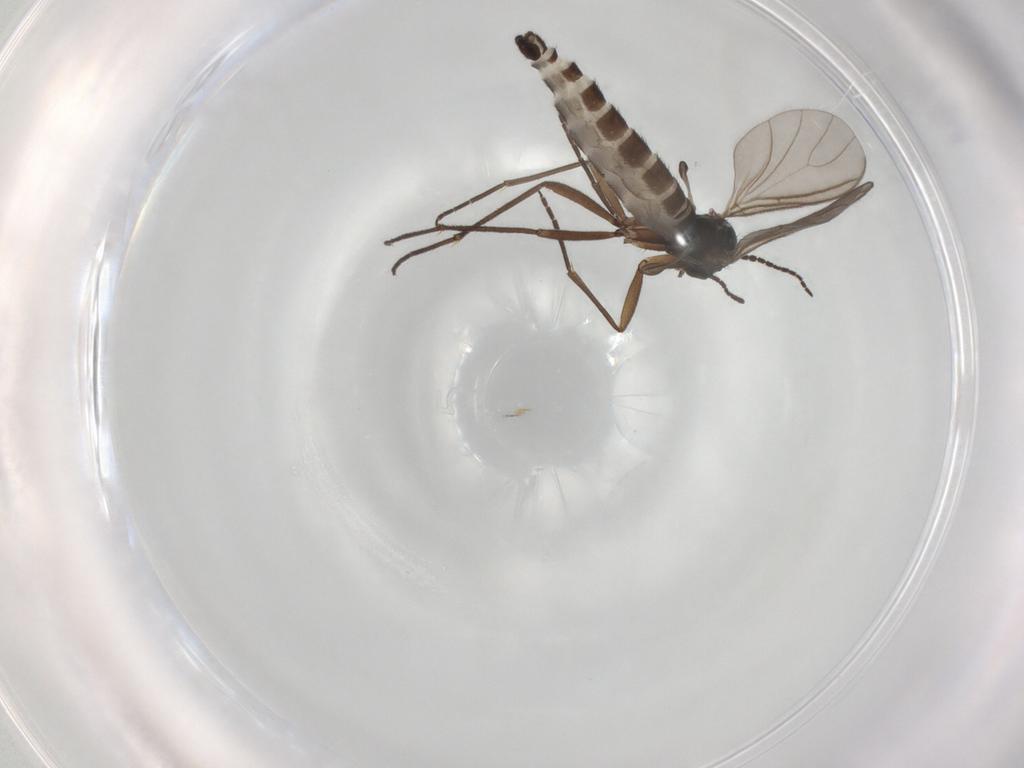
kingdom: Animalia
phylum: Arthropoda
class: Insecta
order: Diptera
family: Sciaridae
